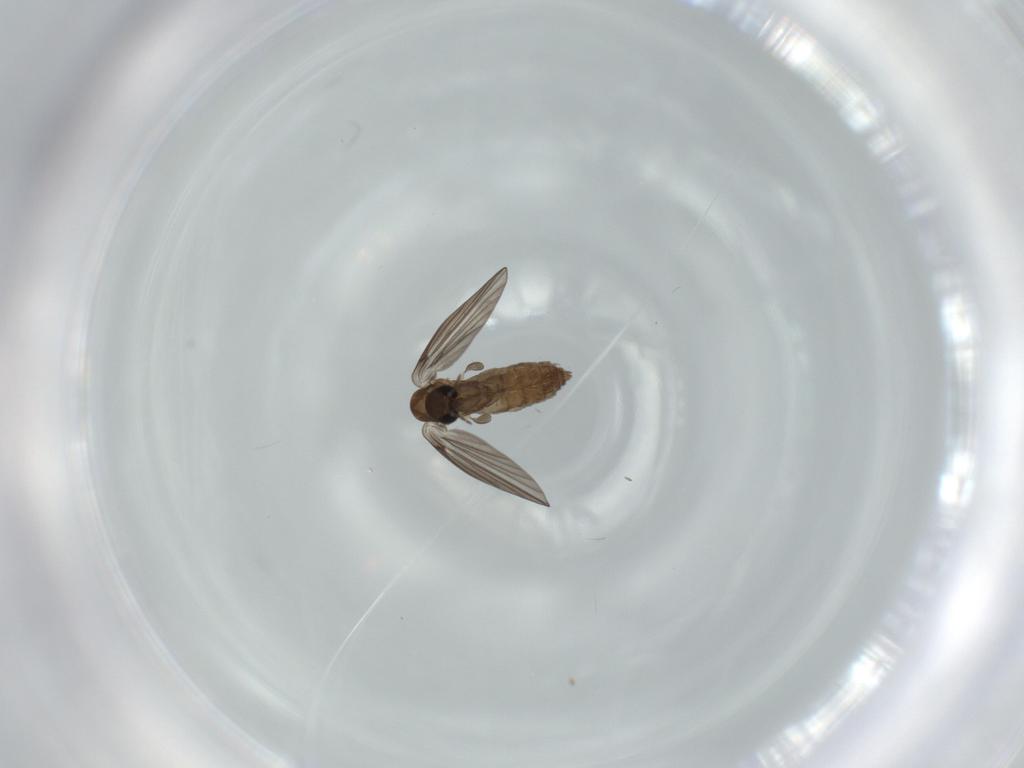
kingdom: Animalia
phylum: Arthropoda
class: Insecta
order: Diptera
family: Psychodidae
